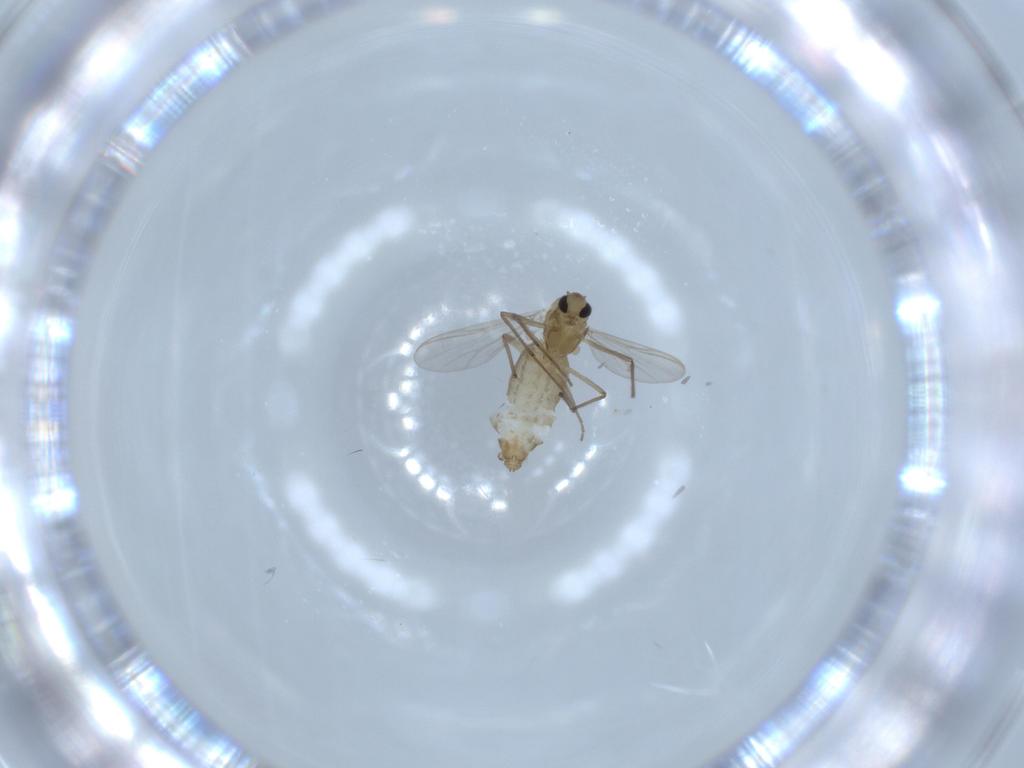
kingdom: Animalia
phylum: Arthropoda
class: Insecta
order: Diptera
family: Chironomidae
